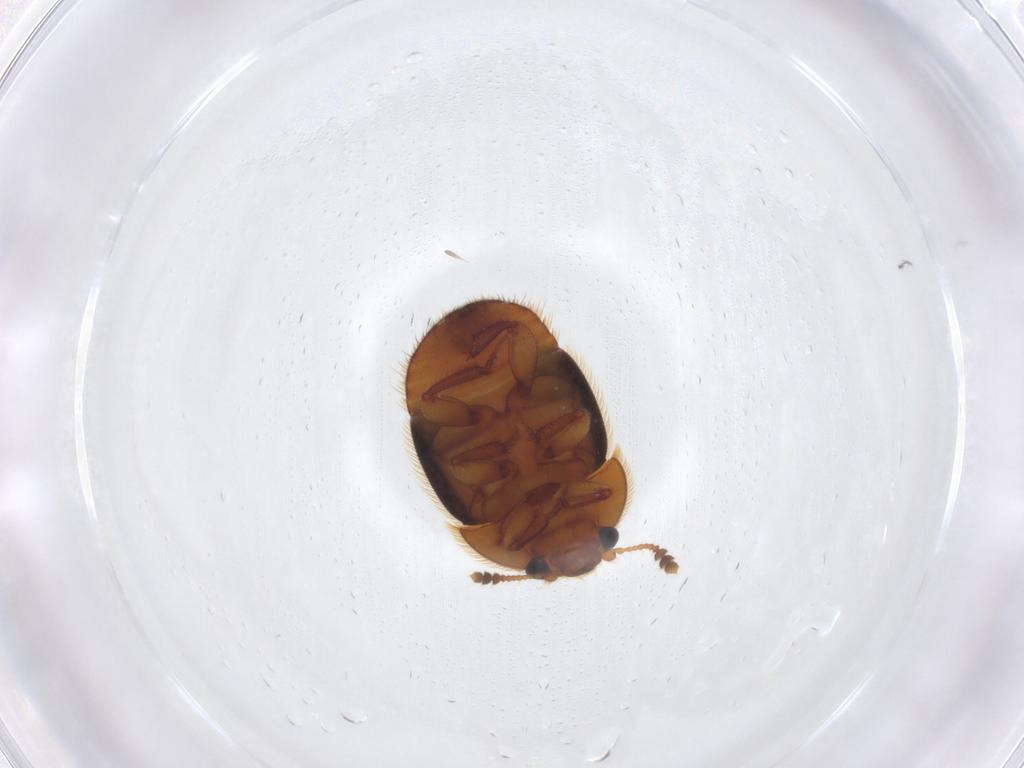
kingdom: Animalia
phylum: Arthropoda
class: Insecta
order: Coleoptera
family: Nitidulidae
